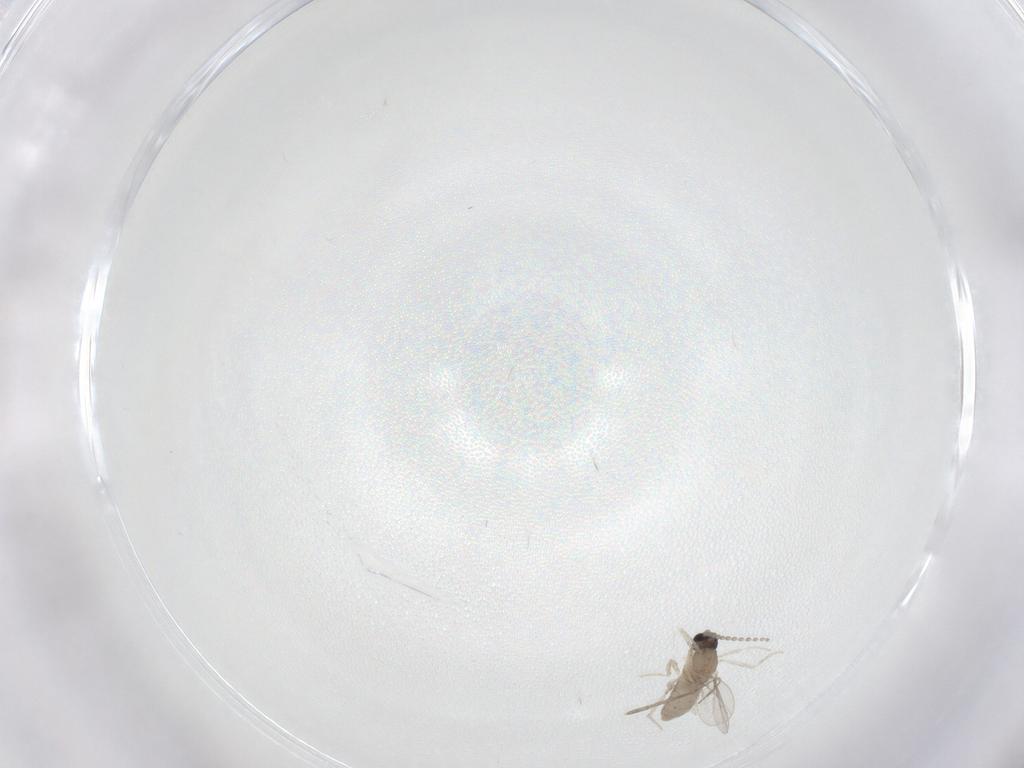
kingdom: Animalia
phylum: Arthropoda
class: Insecta
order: Diptera
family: Cecidomyiidae
